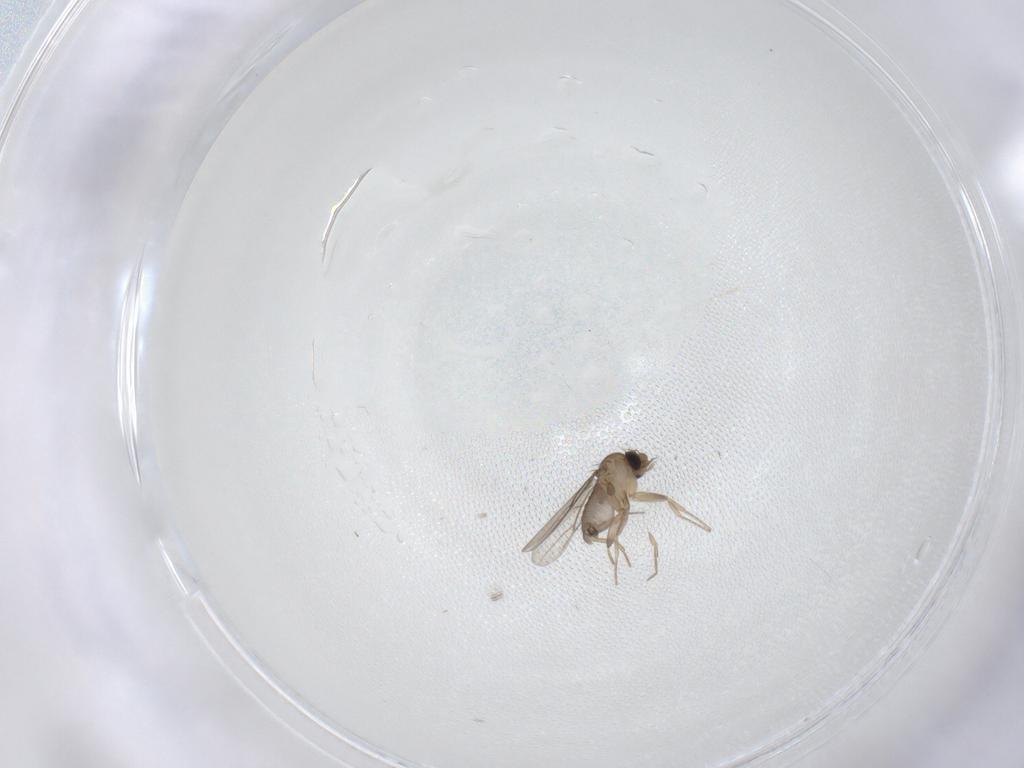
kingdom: Animalia
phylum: Arthropoda
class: Insecta
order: Diptera
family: Phoridae
